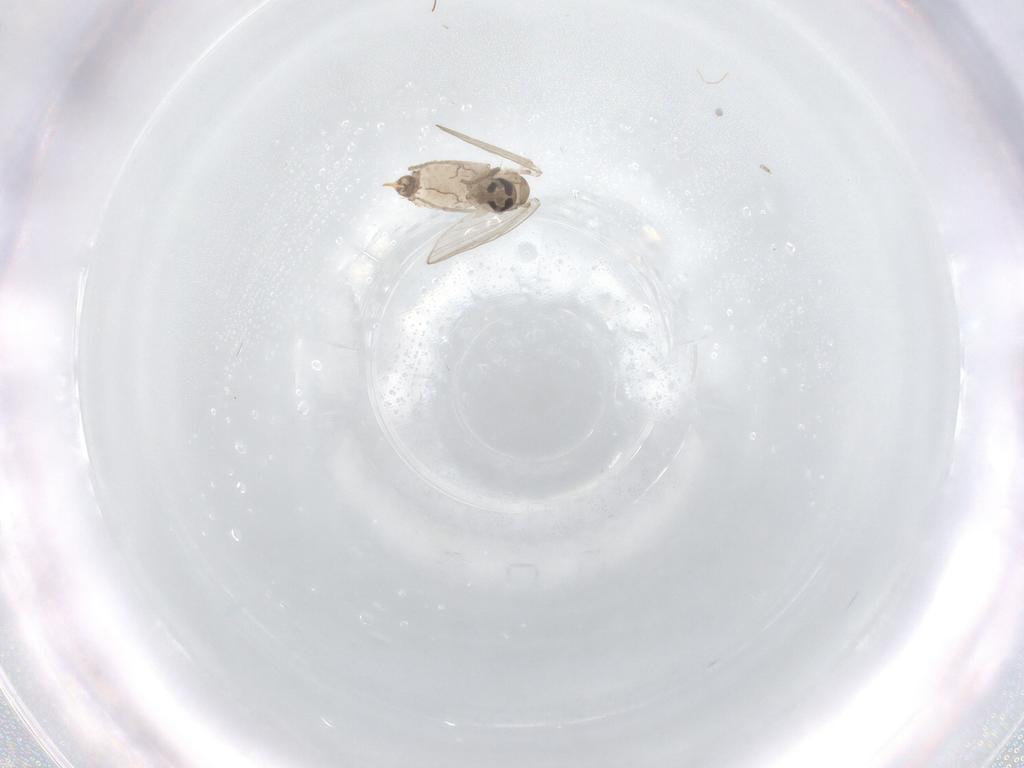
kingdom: Animalia
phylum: Arthropoda
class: Insecta
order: Diptera
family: Psychodidae
